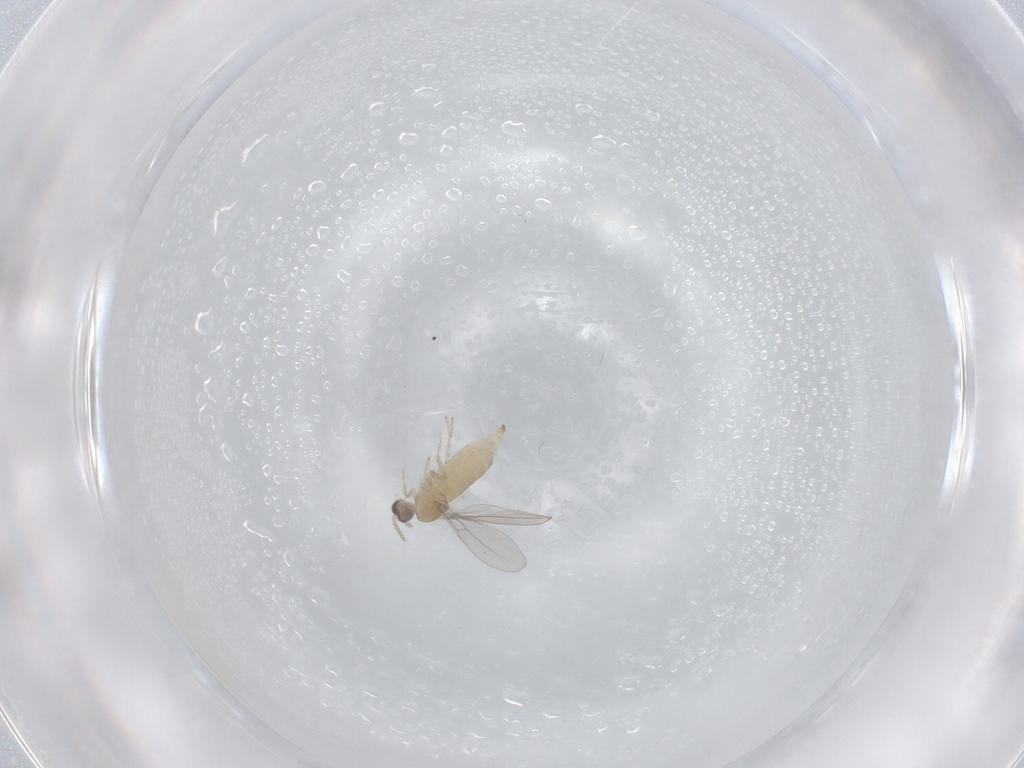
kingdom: Animalia
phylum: Arthropoda
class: Insecta
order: Diptera
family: Cecidomyiidae
